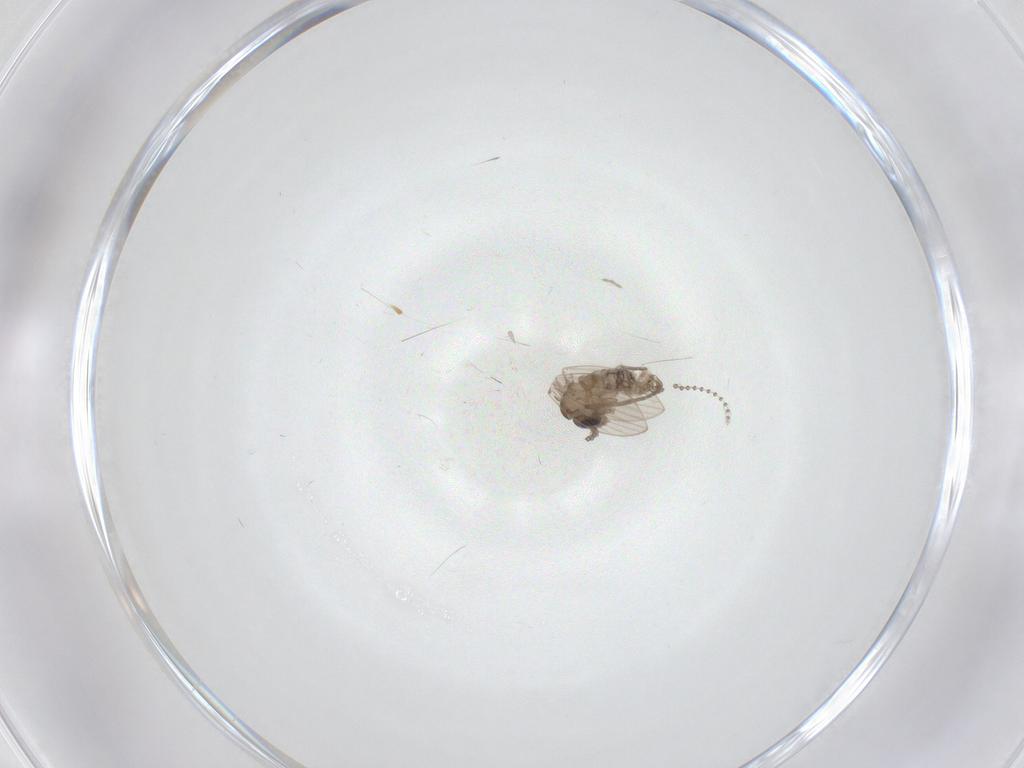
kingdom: Animalia
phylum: Arthropoda
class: Insecta
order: Diptera
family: Psychodidae
